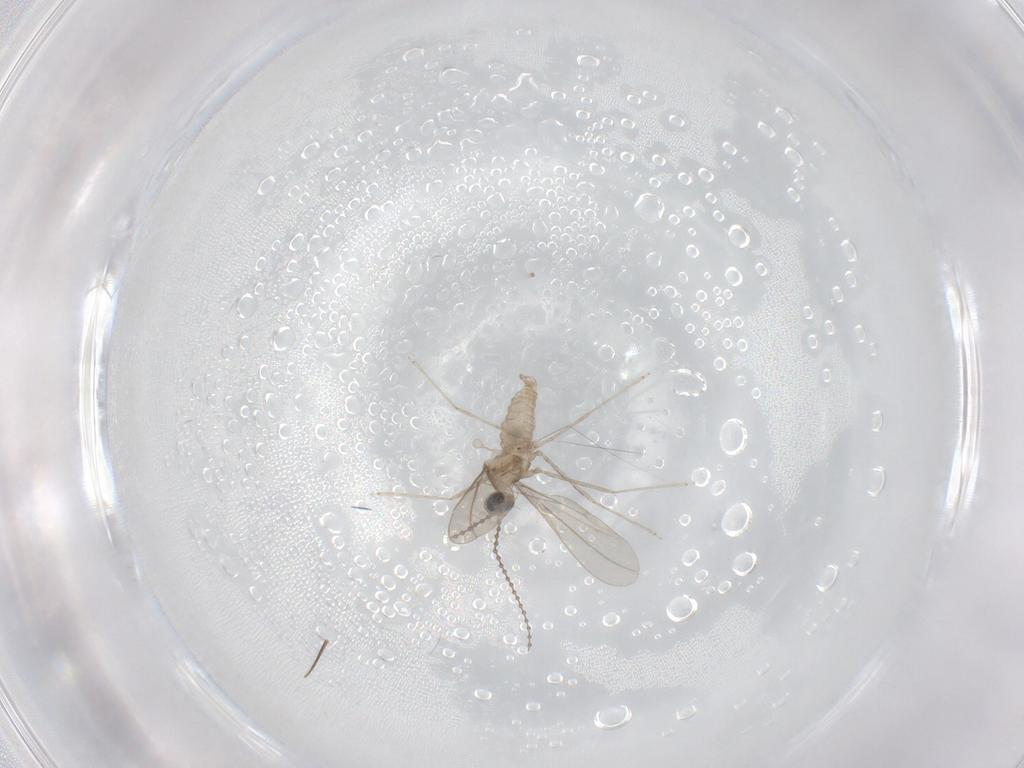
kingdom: Animalia
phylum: Arthropoda
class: Insecta
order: Diptera
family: Cecidomyiidae
